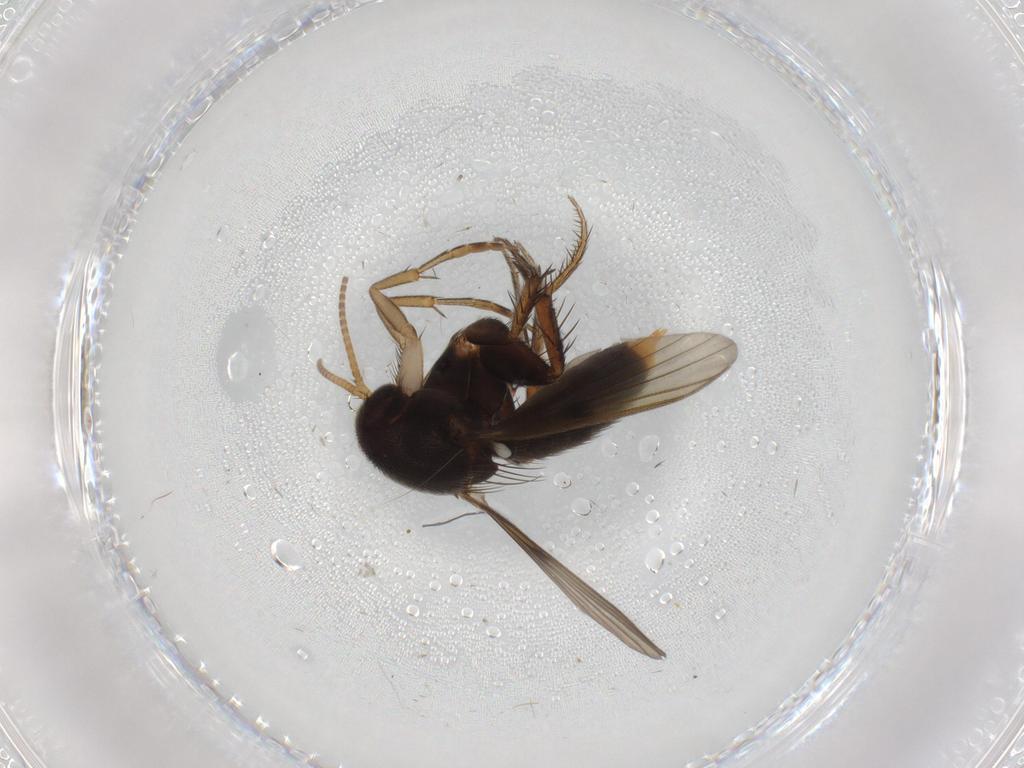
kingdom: Animalia
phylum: Arthropoda
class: Insecta
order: Diptera
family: Mycetophilidae
